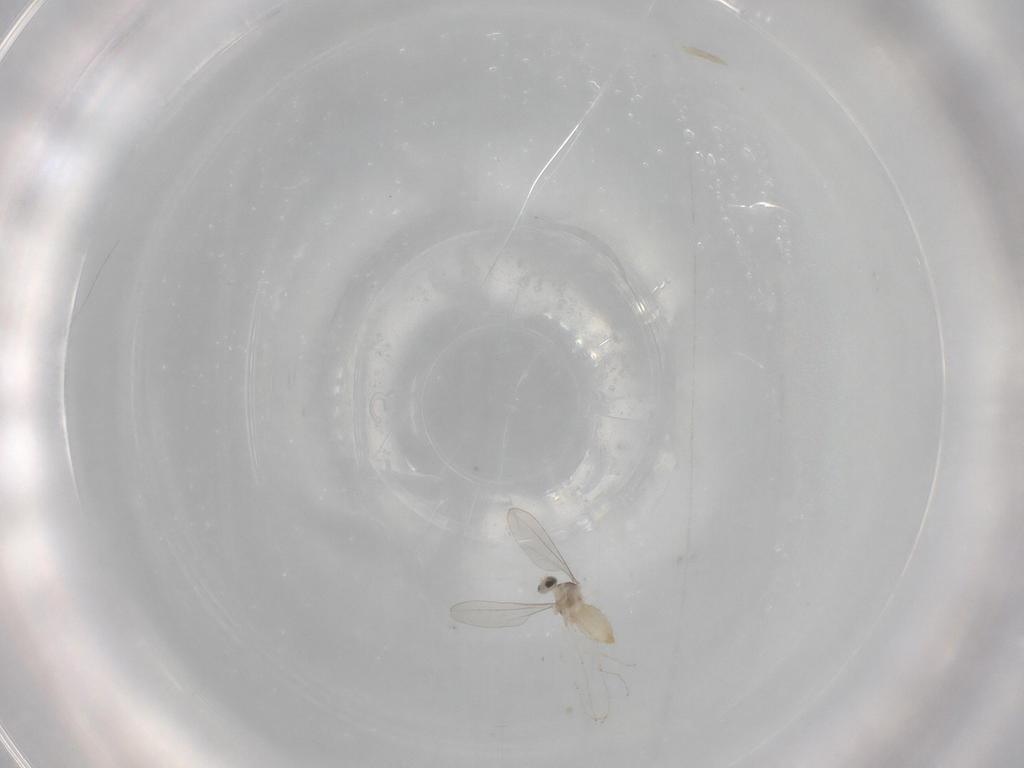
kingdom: Animalia
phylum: Arthropoda
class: Insecta
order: Diptera
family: Cecidomyiidae
